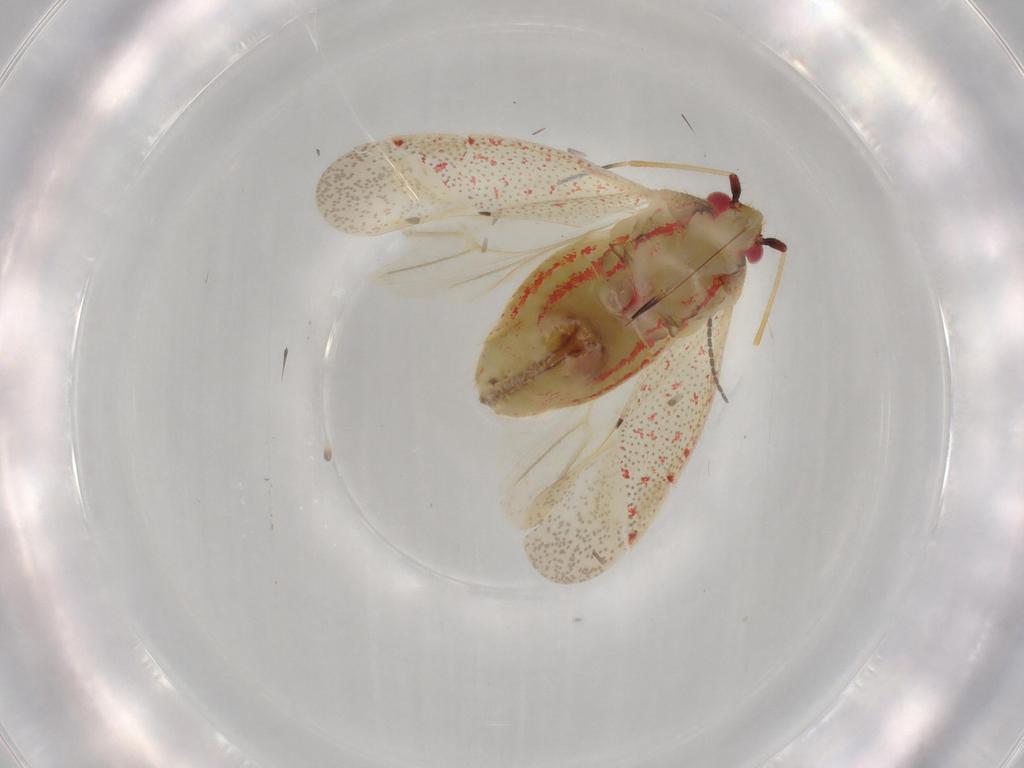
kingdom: Animalia
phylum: Arthropoda
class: Insecta
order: Hemiptera
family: Miridae
